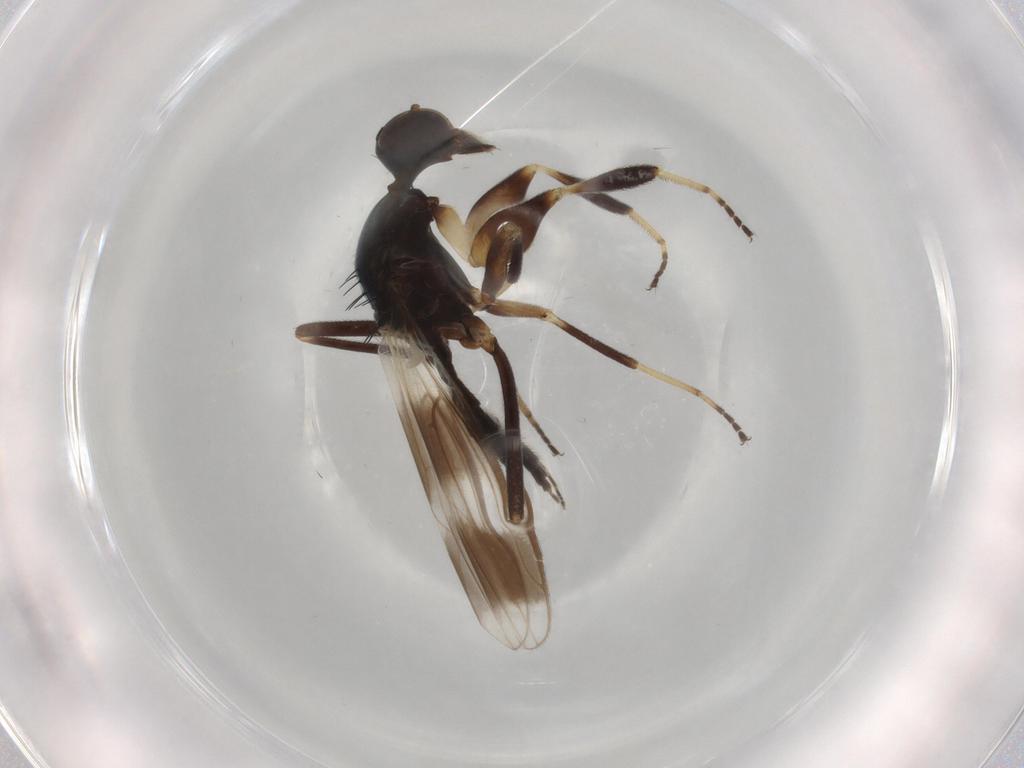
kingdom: Animalia
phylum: Arthropoda
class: Insecta
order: Diptera
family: Hybotidae
